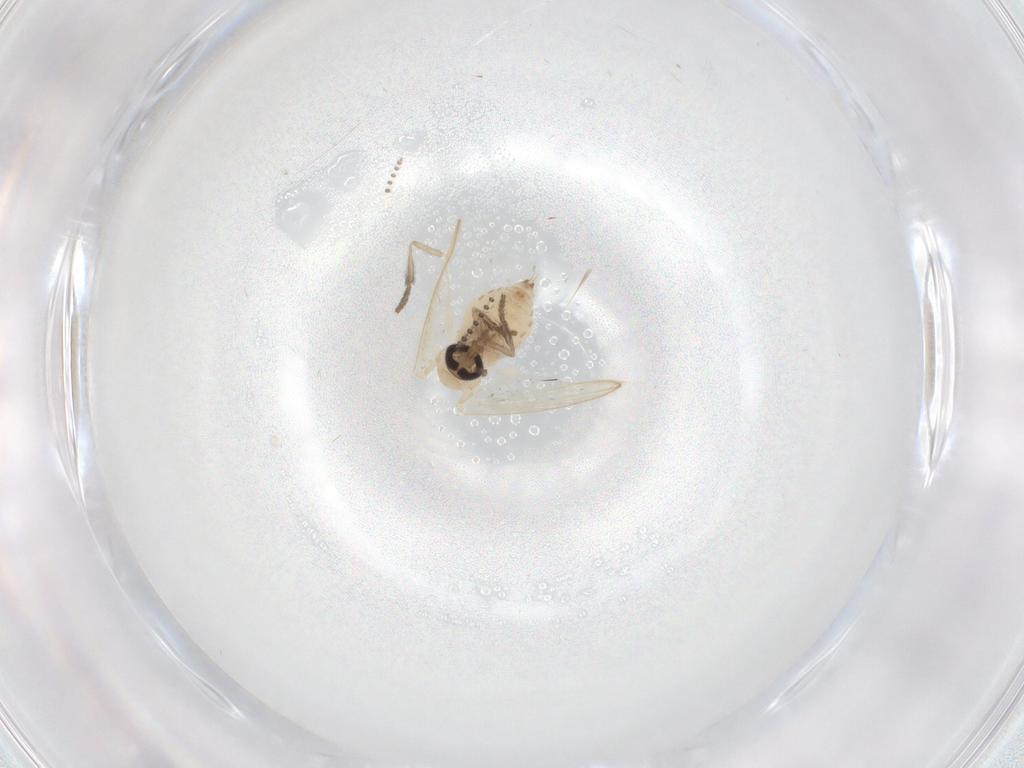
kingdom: Animalia
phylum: Arthropoda
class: Insecta
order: Diptera
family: Psychodidae
